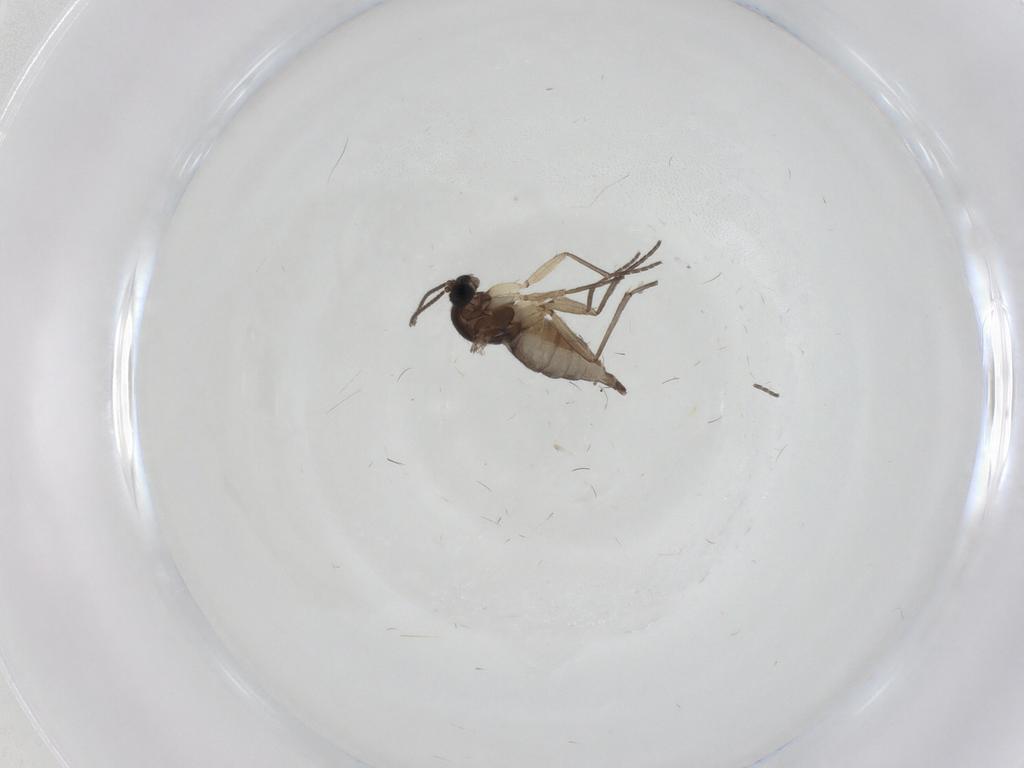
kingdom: Animalia
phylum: Arthropoda
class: Insecta
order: Diptera
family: Sciaridae
